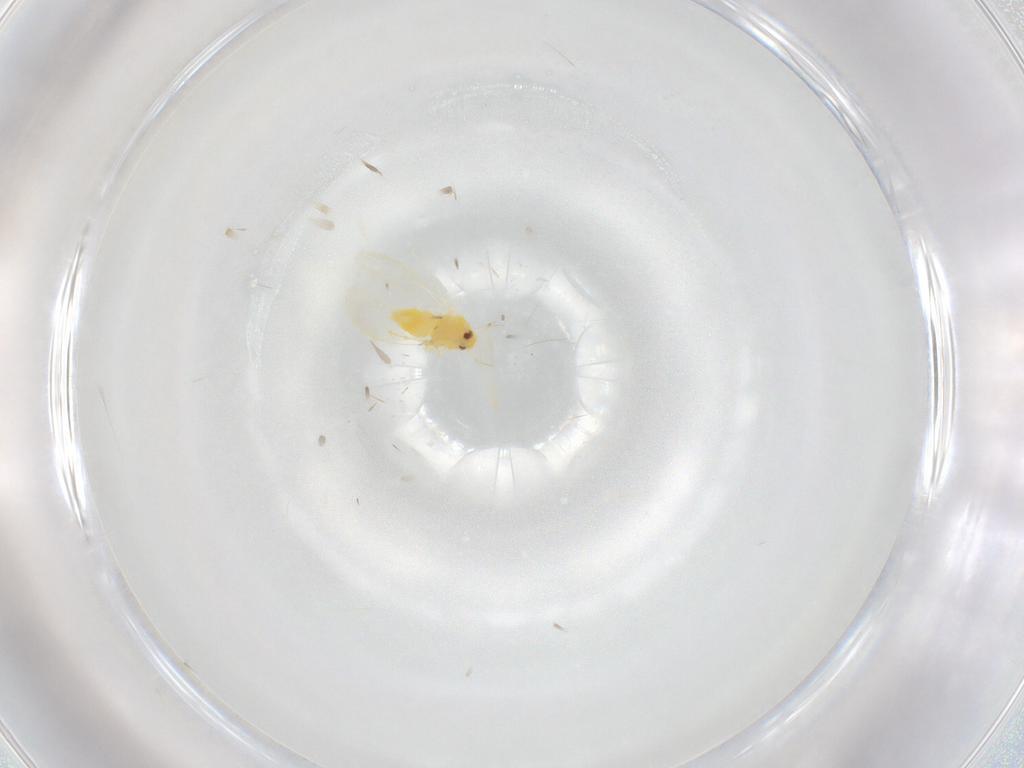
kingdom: Animalia
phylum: Arthropoda
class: Insecta
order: Hemiptera
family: Aleyrodidae
